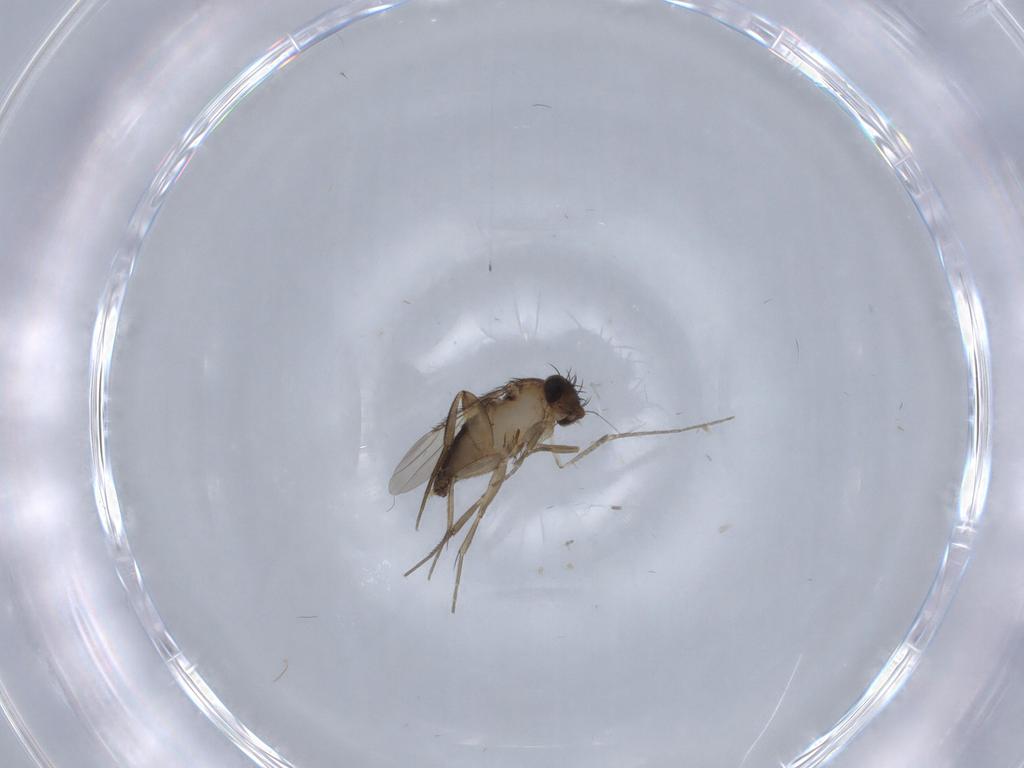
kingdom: Animalia
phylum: Arthropoda
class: Insecta
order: Diptera
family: Phoridae
